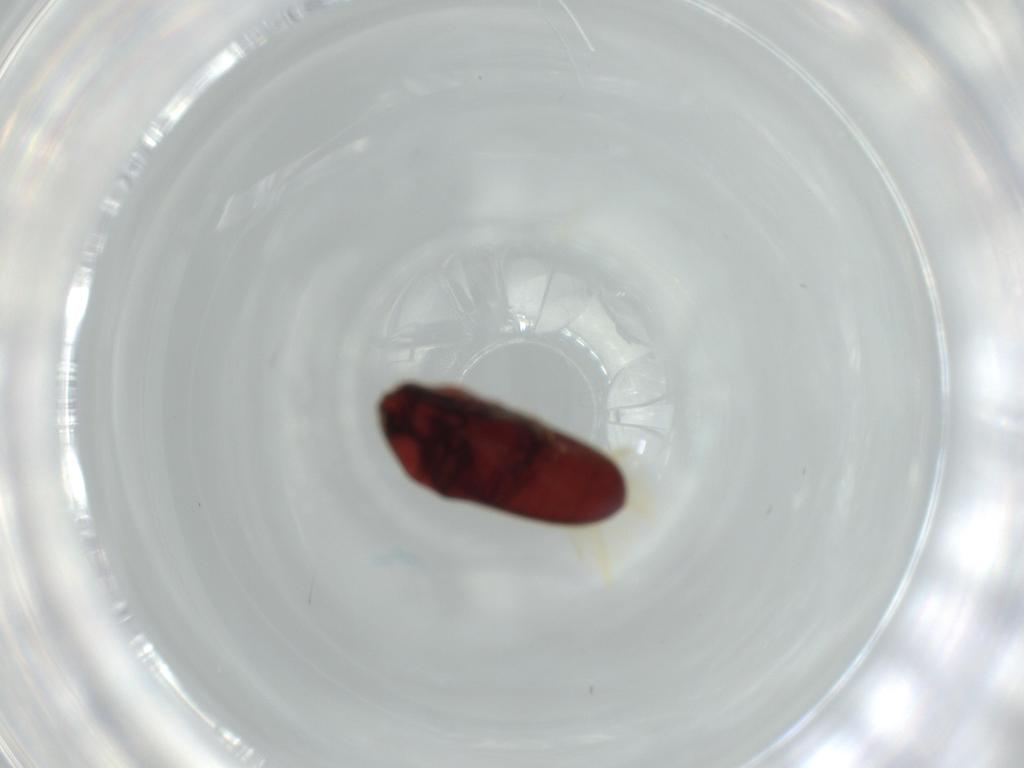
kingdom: Animalia
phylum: Arthropoda
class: Insecta
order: Coleoptera
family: Throscidae
